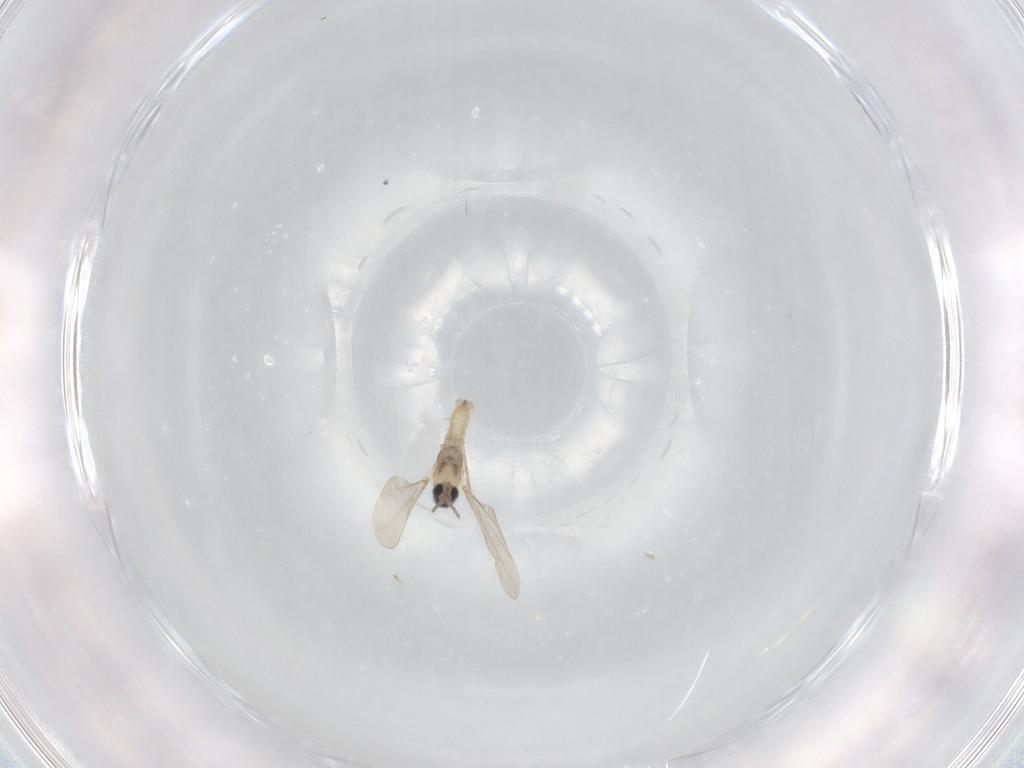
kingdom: Animalia
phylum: Arthropoda
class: Insecta
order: Diptera
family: Cecidomyiidae
